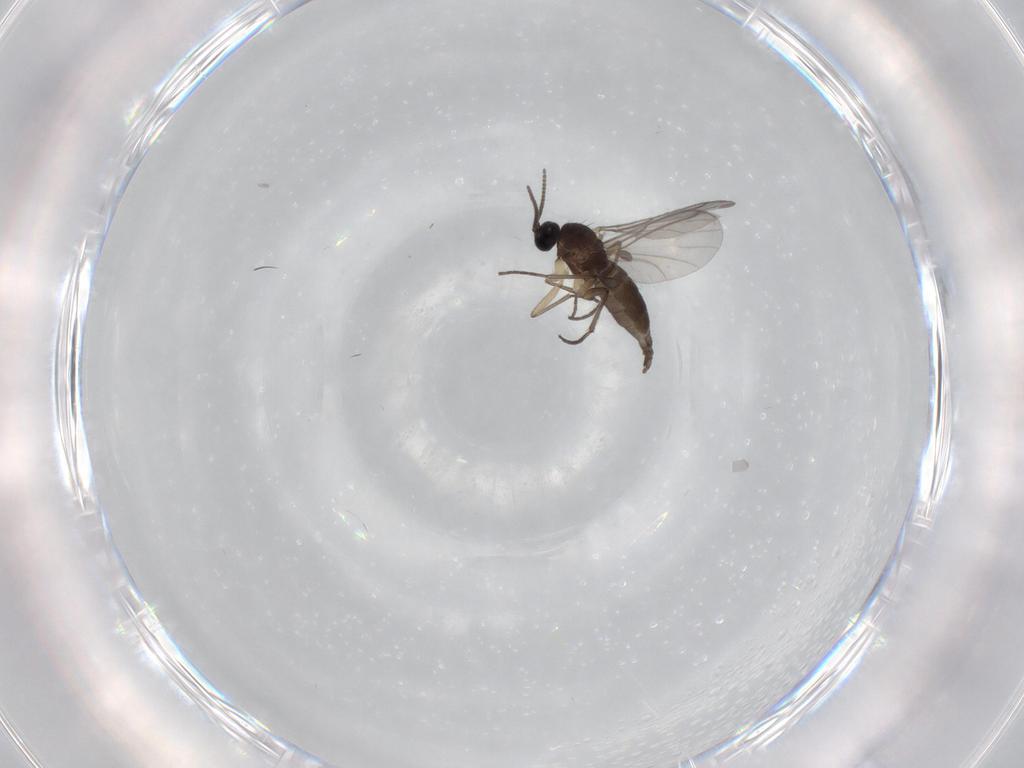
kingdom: Animalia
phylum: Arthropoda
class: Insecta
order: Diptera
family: Sciaridae
